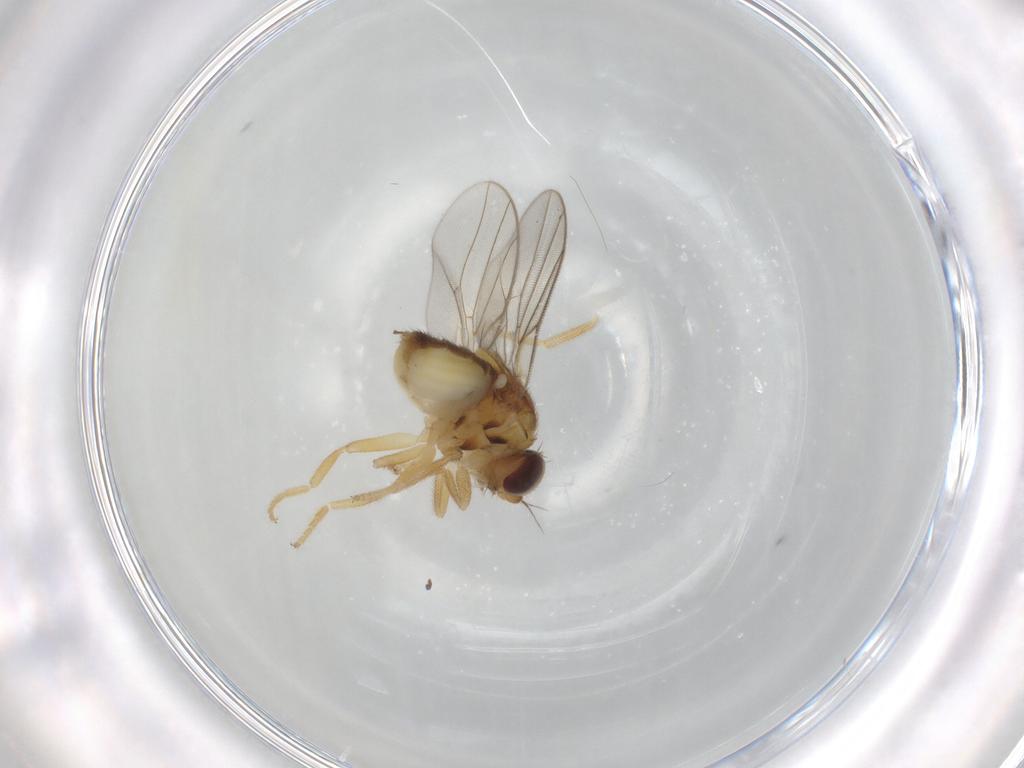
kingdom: Animalia
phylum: Arthropoda
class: Insecta
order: Diptera
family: Chloropidae
